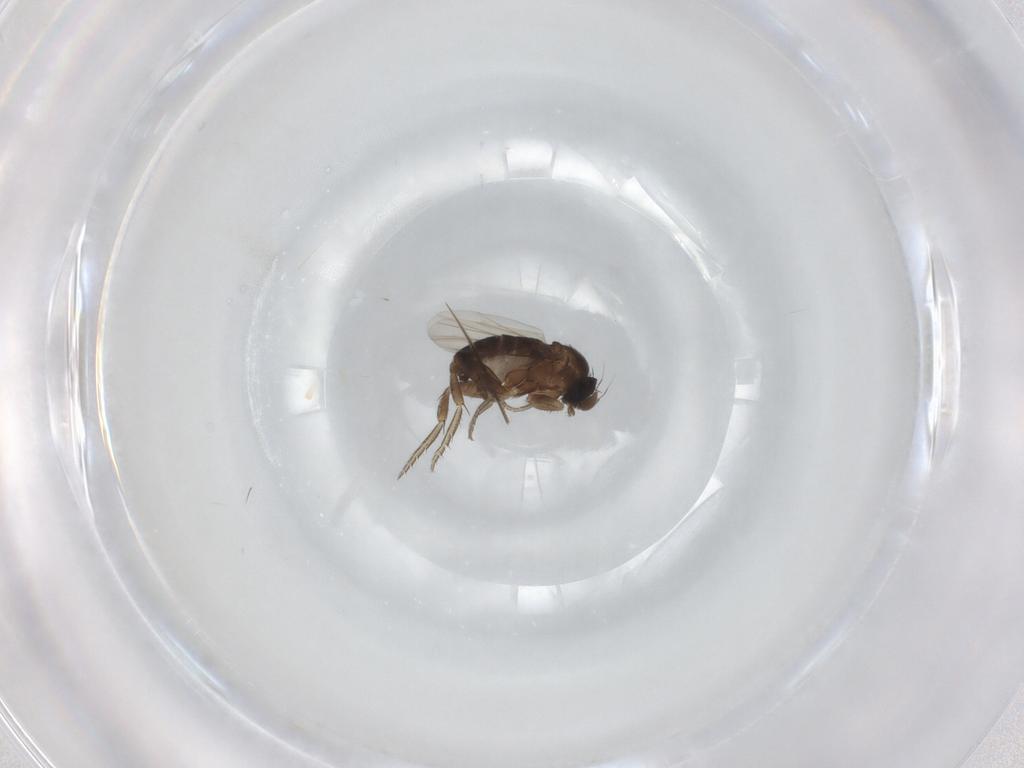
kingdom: Animalia
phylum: Arthropoda
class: Insecta
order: Diptera
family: Phoridae
